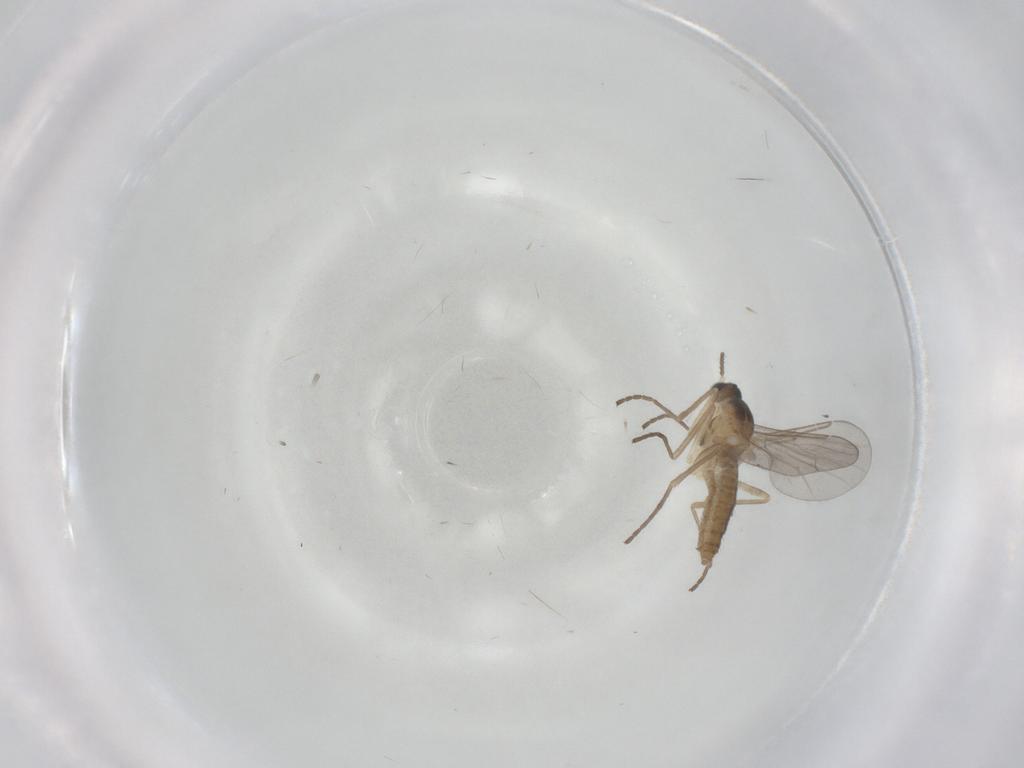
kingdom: Animalia
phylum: Arthropoda
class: Insecta
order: Diptera
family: Cecidomyiidae
